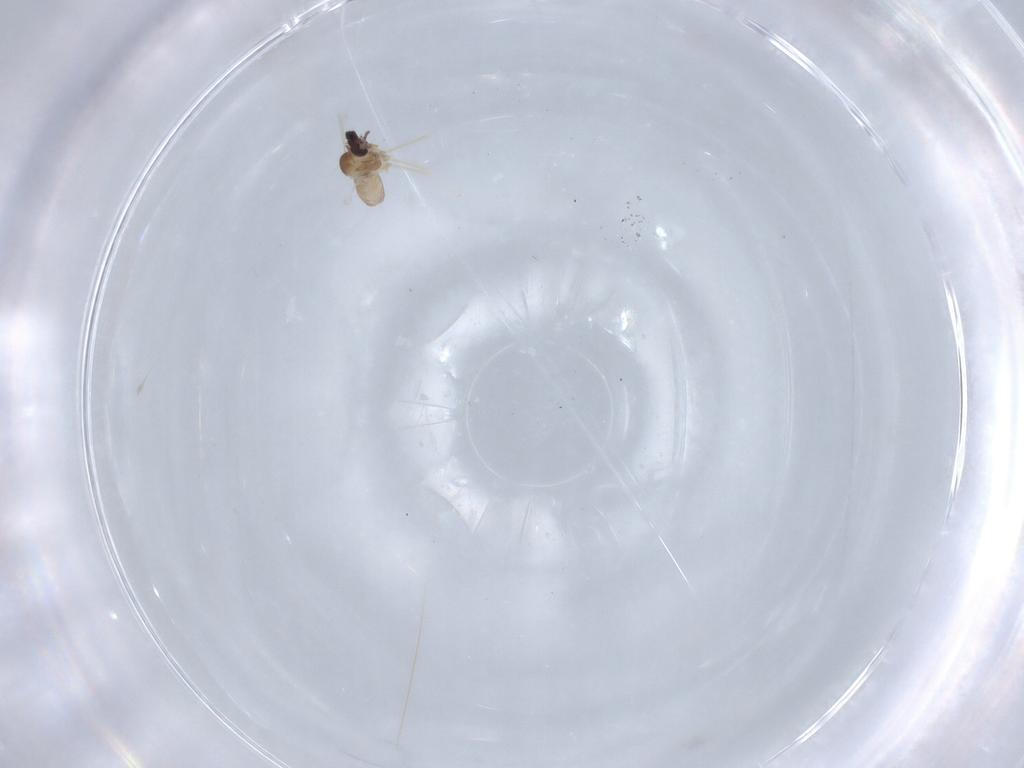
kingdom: Animalia
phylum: Arthropoda
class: Insecta
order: Diptera
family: Cecidomyiidae
